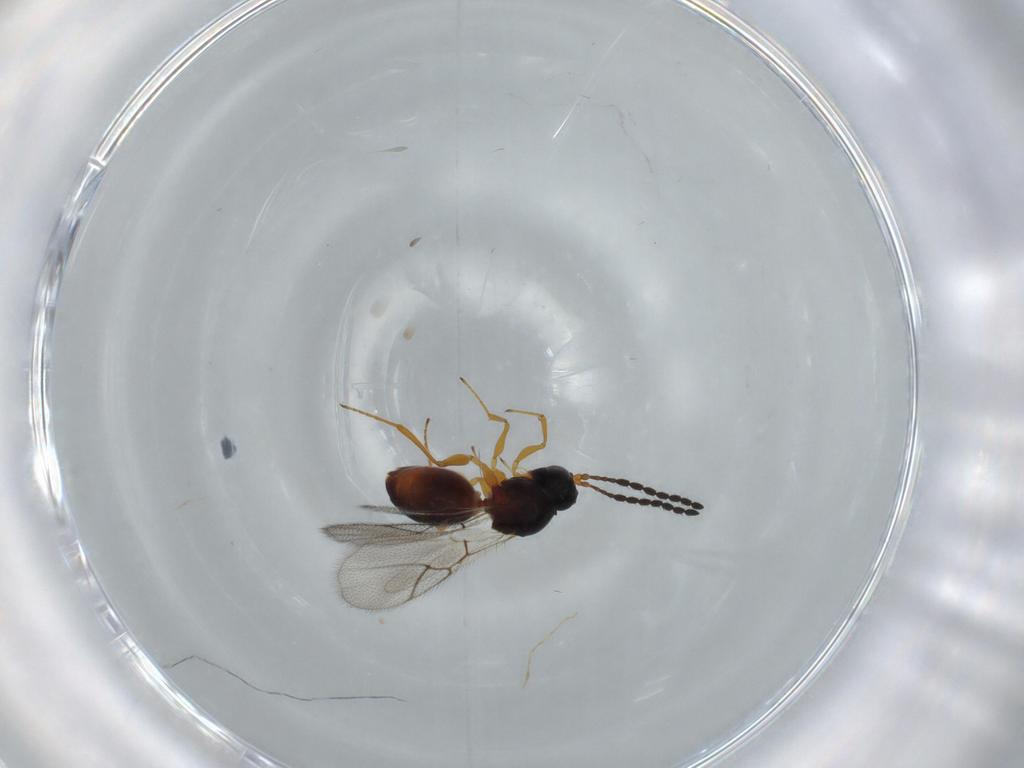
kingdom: Animalia
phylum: Arthropoda
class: Insecta
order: Hymenoptera
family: Figitidae
